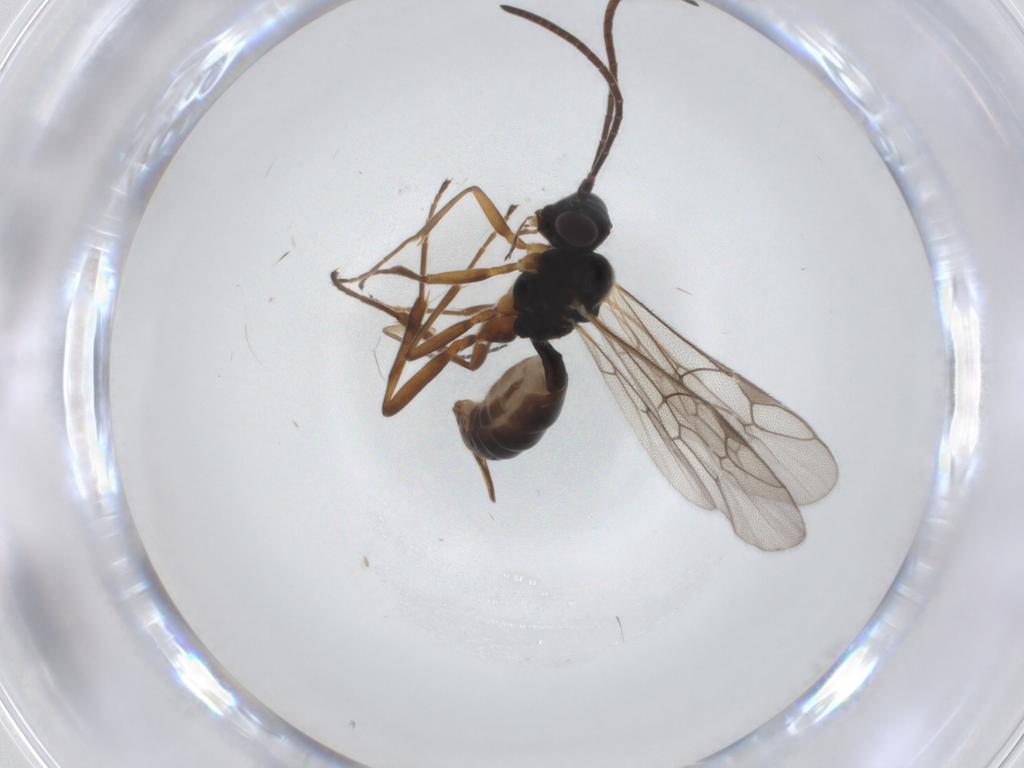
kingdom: Animalia
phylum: Arthropoda
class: Insecta
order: Hymenoptera
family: Ichneumonidae
